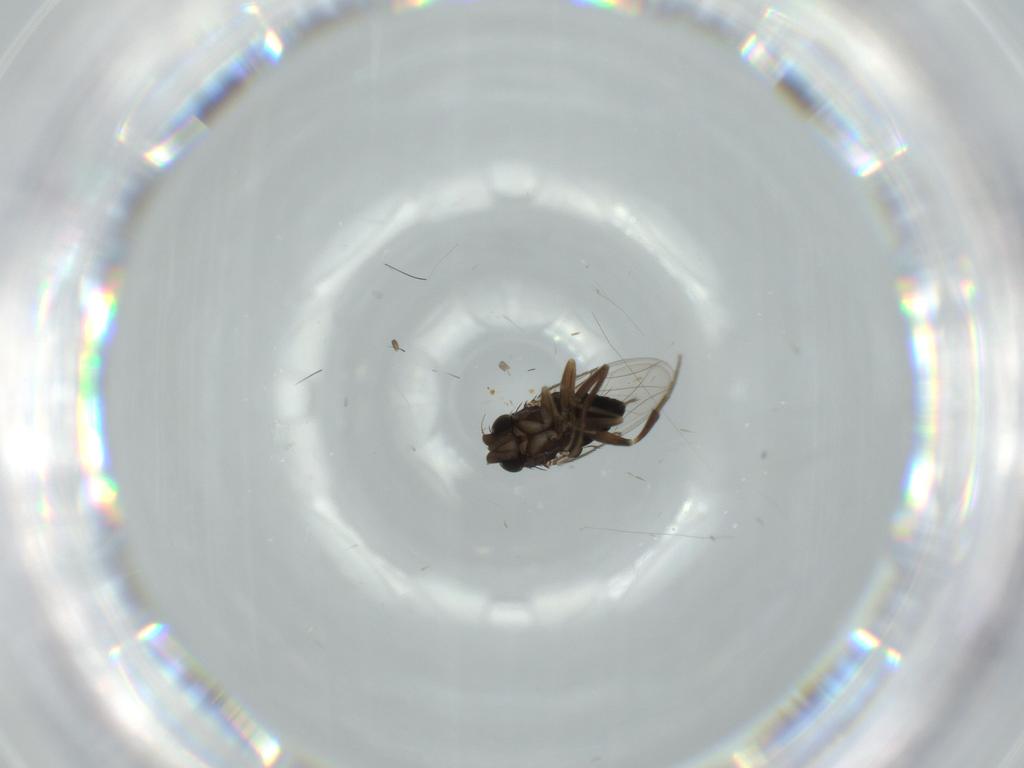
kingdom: Animalia
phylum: Arthropoda
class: Insecta
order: Diptera
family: Phoridae
